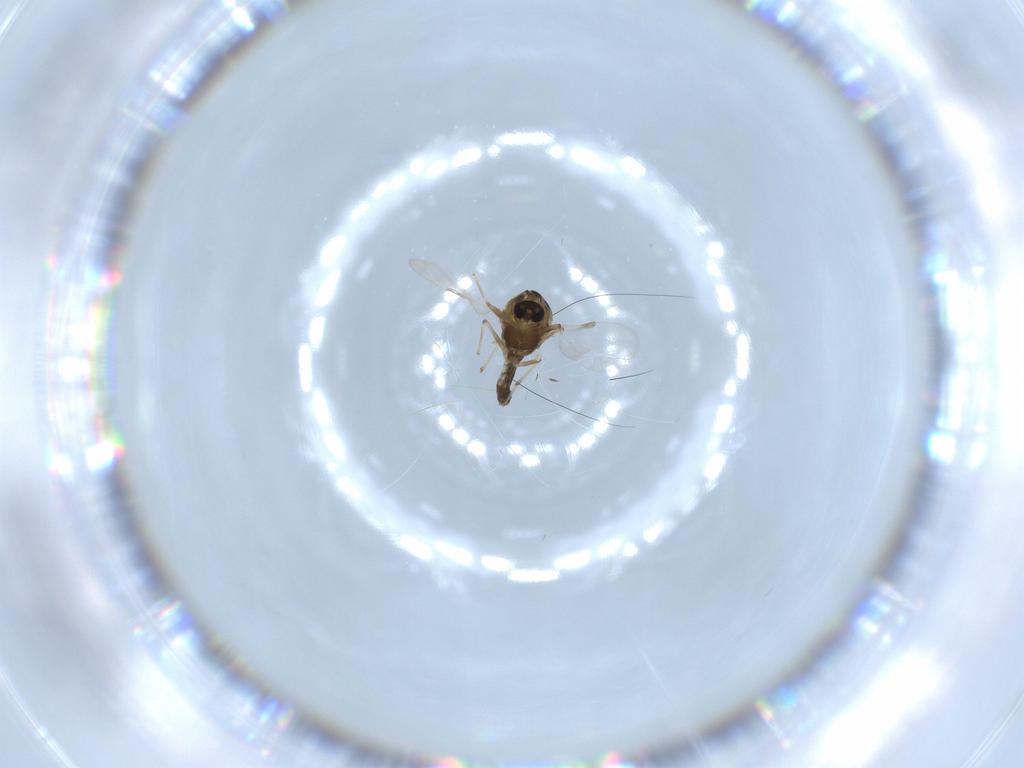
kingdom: Animalia
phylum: Arthropoda
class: Insecta
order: Diptera
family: Chironomidae
